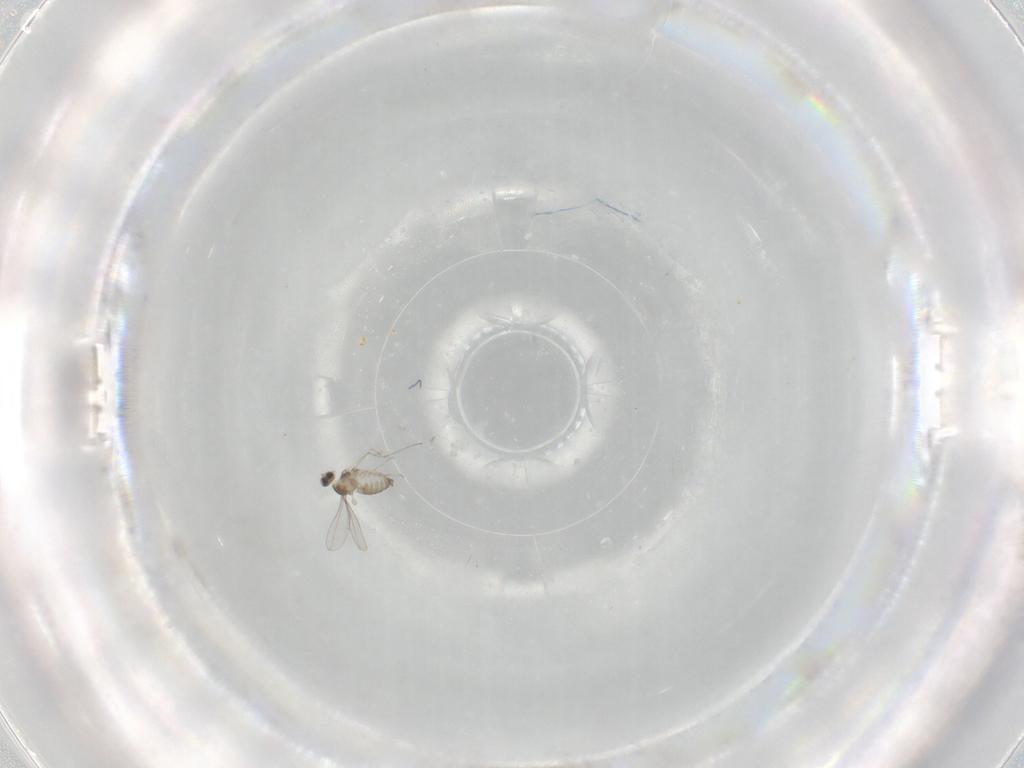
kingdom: Animalia
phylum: Arthropoda
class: Insecta
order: Diptera
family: Cecidomyiidae
